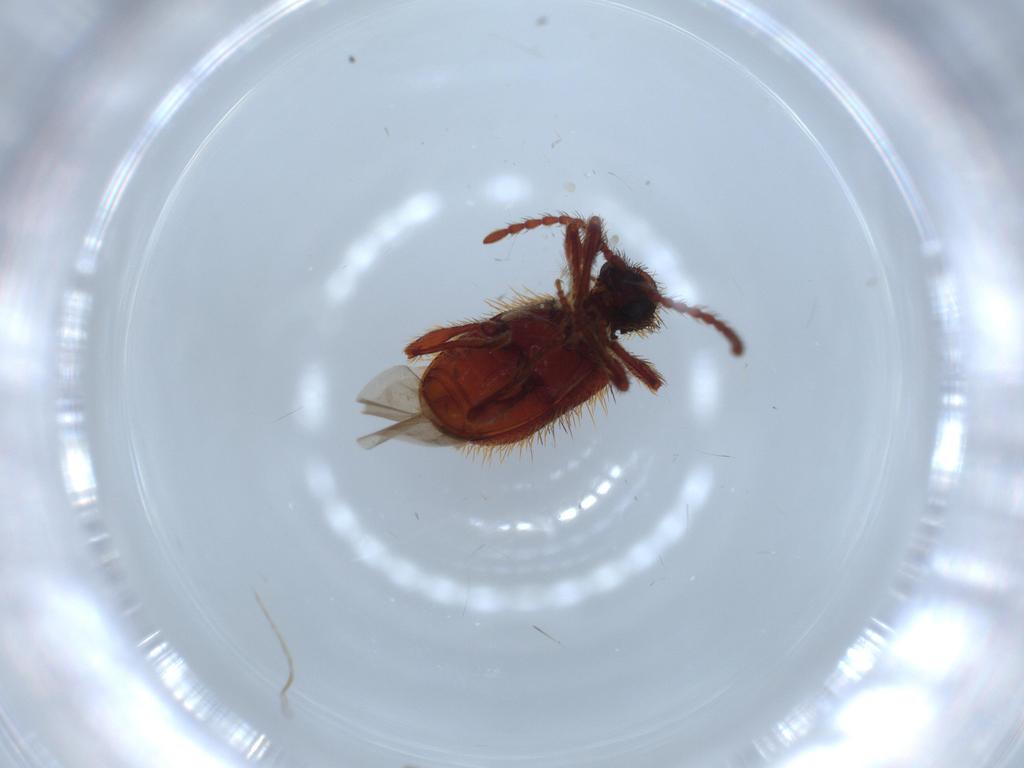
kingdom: Animalia
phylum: Arthropoda
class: Insecta
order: Coleoptera
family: Ptinidae
